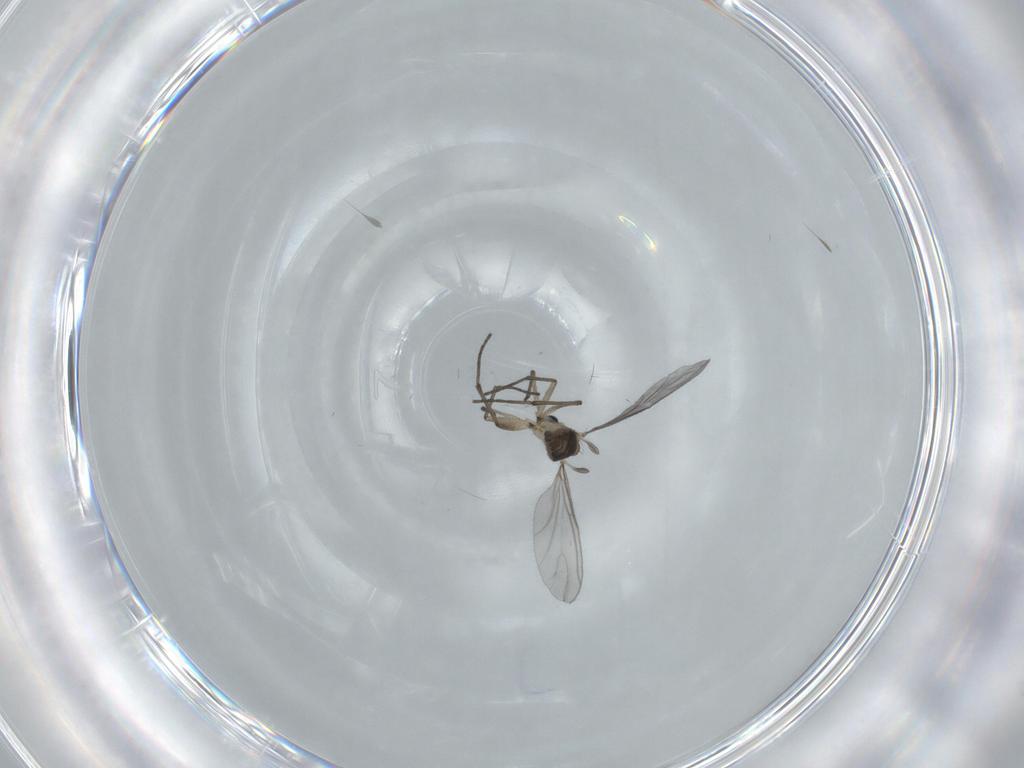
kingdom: Animalia
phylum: Arthropoda
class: Insecta
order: Diptera
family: Sciaridae
